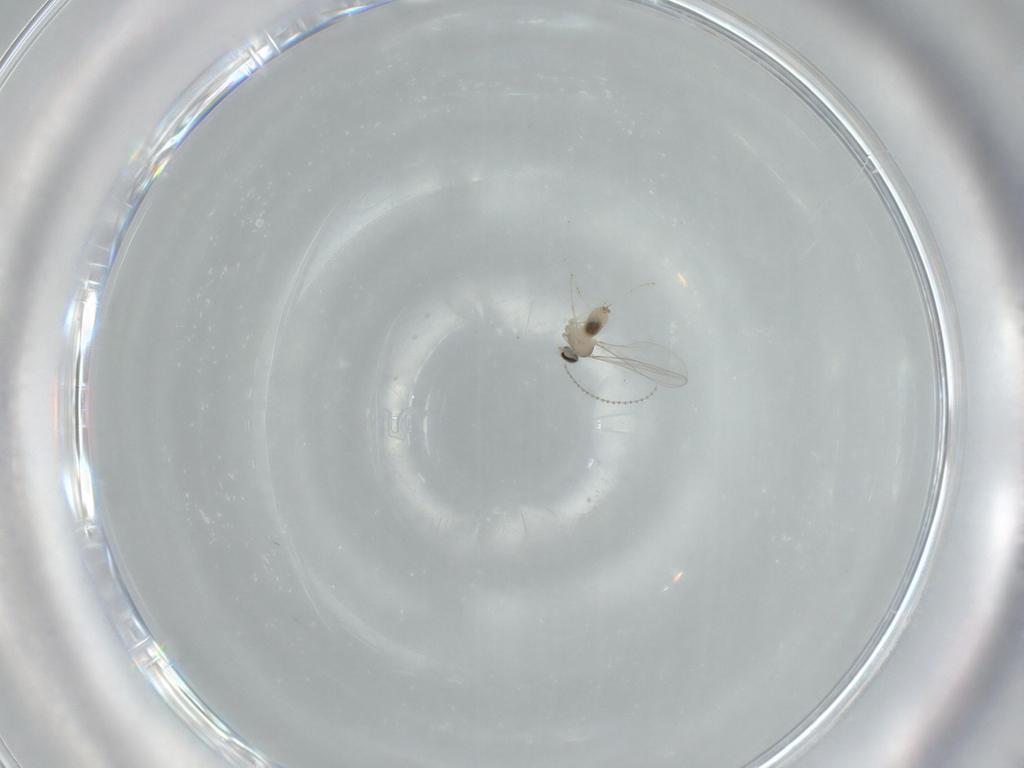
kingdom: Animalia
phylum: Arthropoda
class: Insecta
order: Diptera
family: Cecidomyiidae
